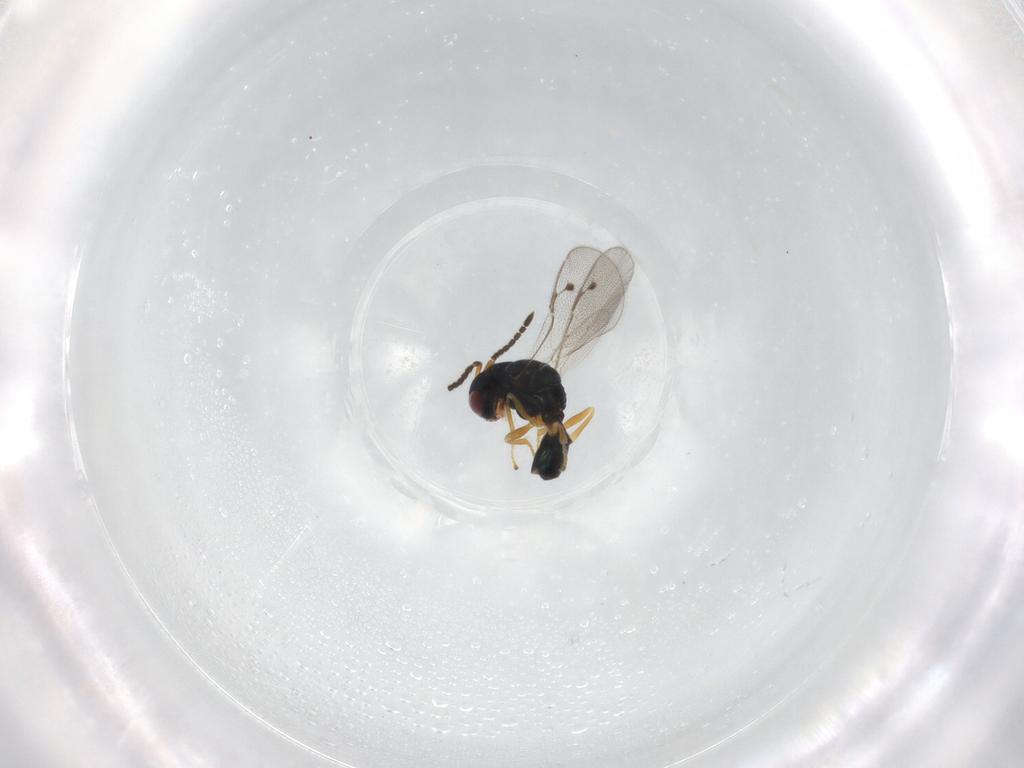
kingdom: Animalia
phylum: Arthropoda
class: Insecta
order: Hymenoptera
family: Pteromalidae
